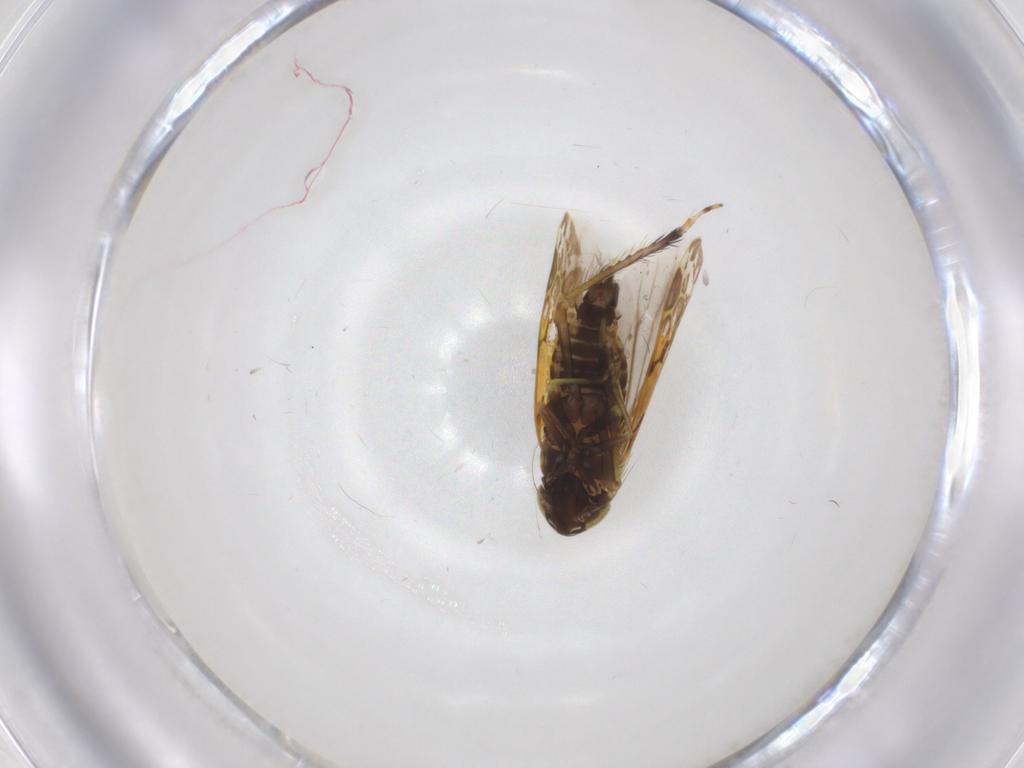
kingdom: Animalia
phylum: Arthropoda
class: Insecta
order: Hemiptera
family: Cicadellidae
